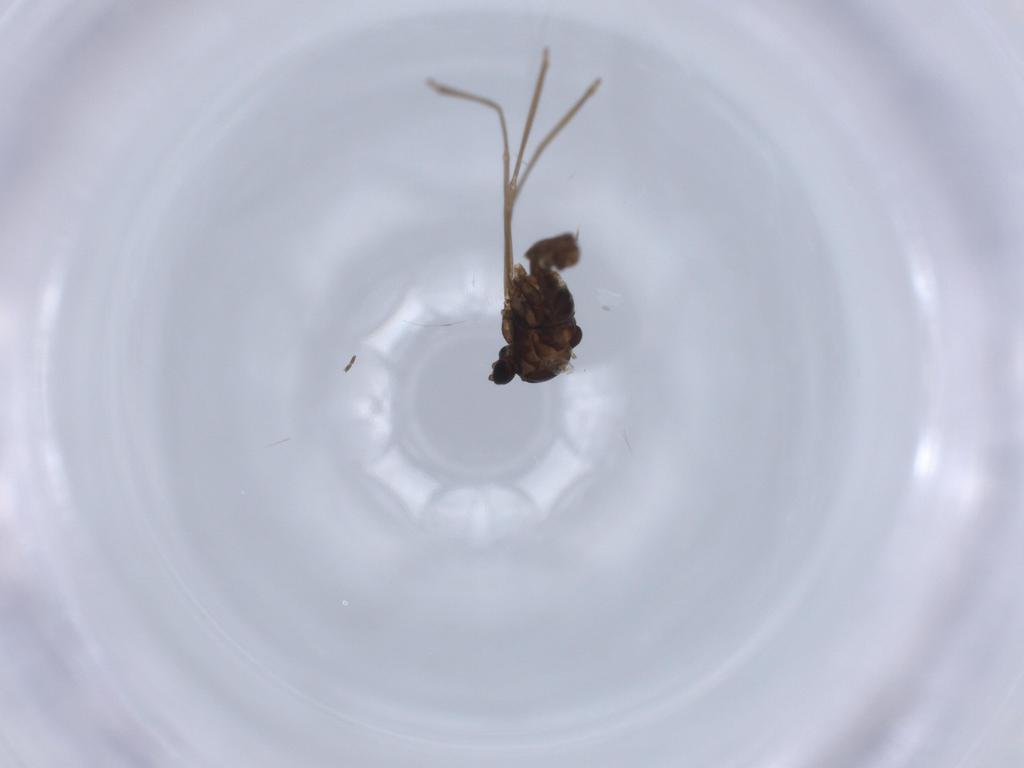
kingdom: Animalia
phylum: Arthropoda
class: Insecta
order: Diptera
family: Cecidomyiidae
